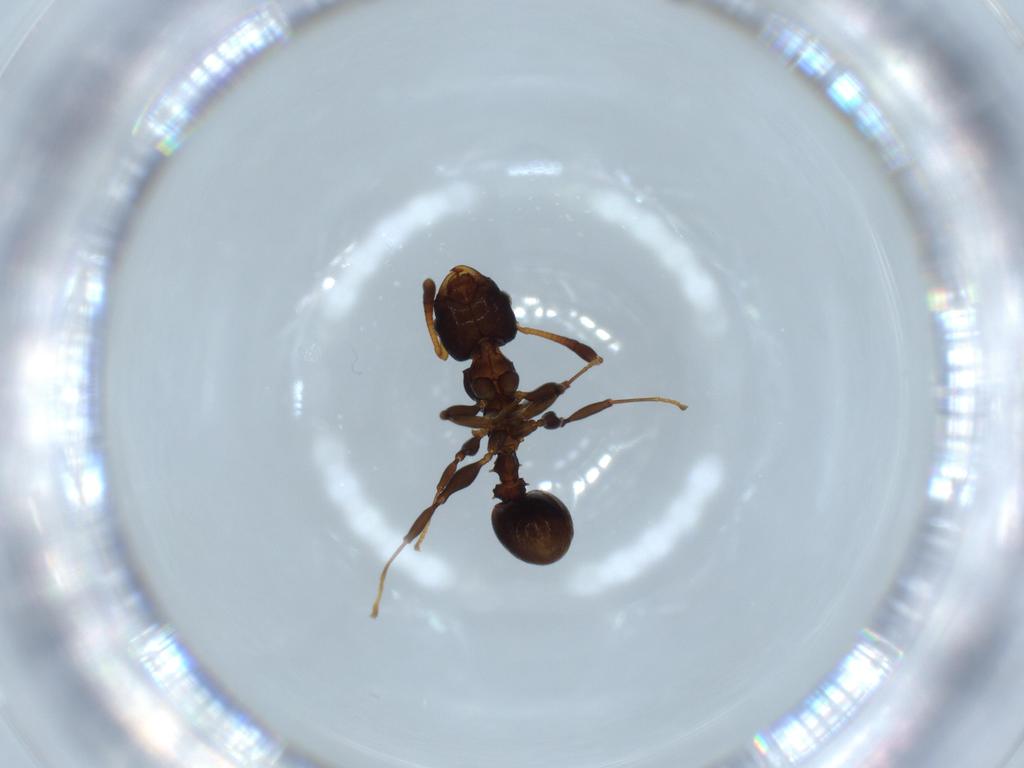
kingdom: Animalia
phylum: Arthropoda
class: Insecta
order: Hymenoptera
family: Formicidae
